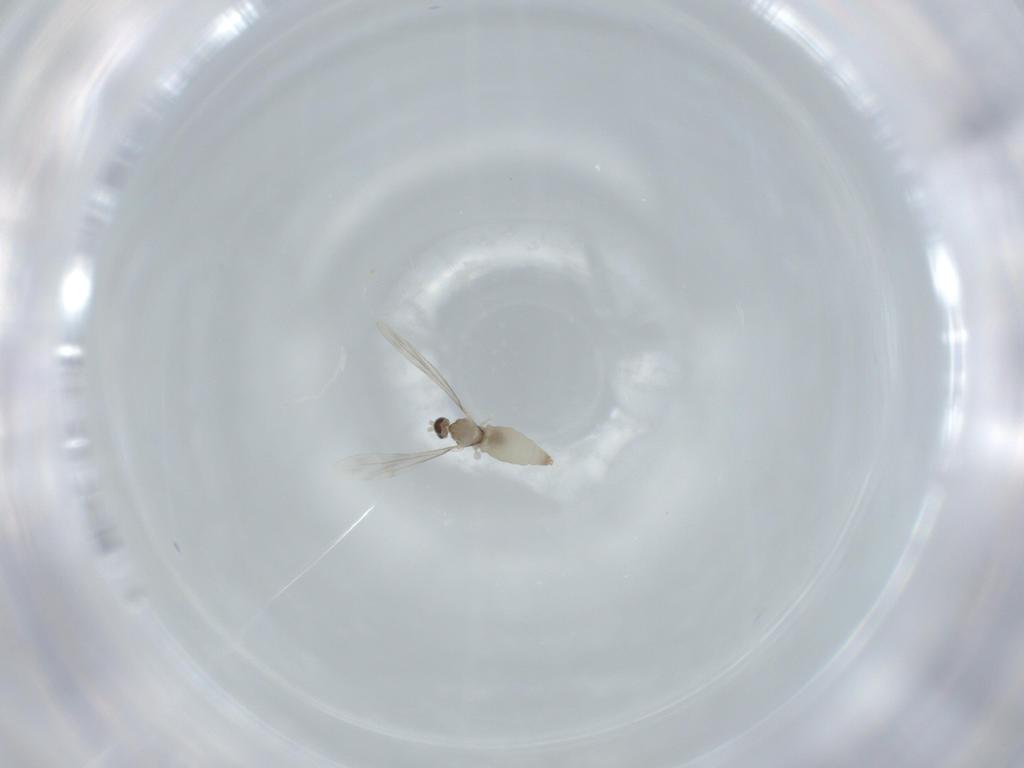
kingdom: Animalia
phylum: Arthropoda
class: Insecta
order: Diptera
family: Cecidomyiidae
